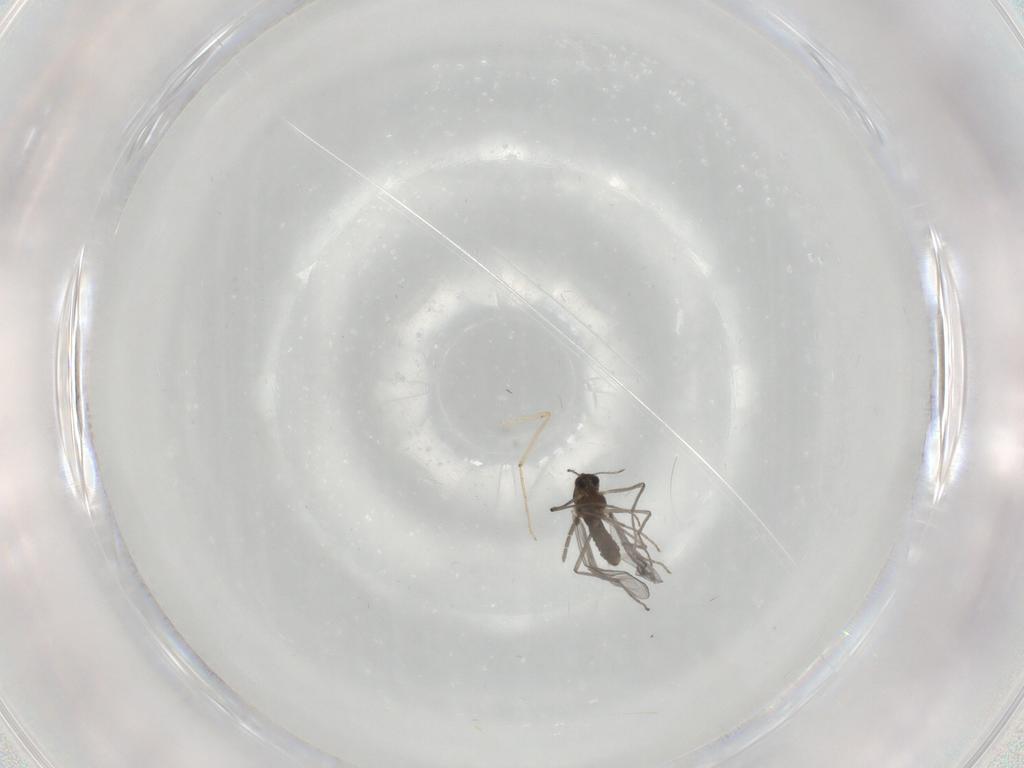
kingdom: Animalia
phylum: Arthropoda
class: Insecta
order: Diptera
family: Chironomidae
